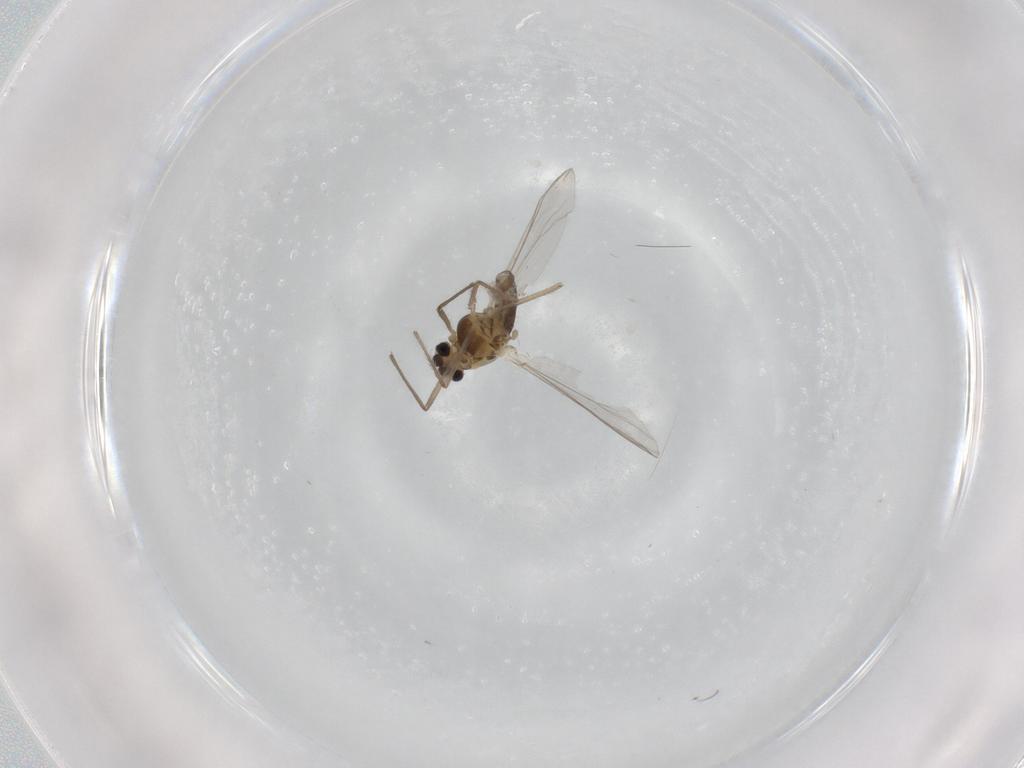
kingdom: Animalia
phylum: Arthropoda
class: Insecta
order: Diptera
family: Chironomidae
